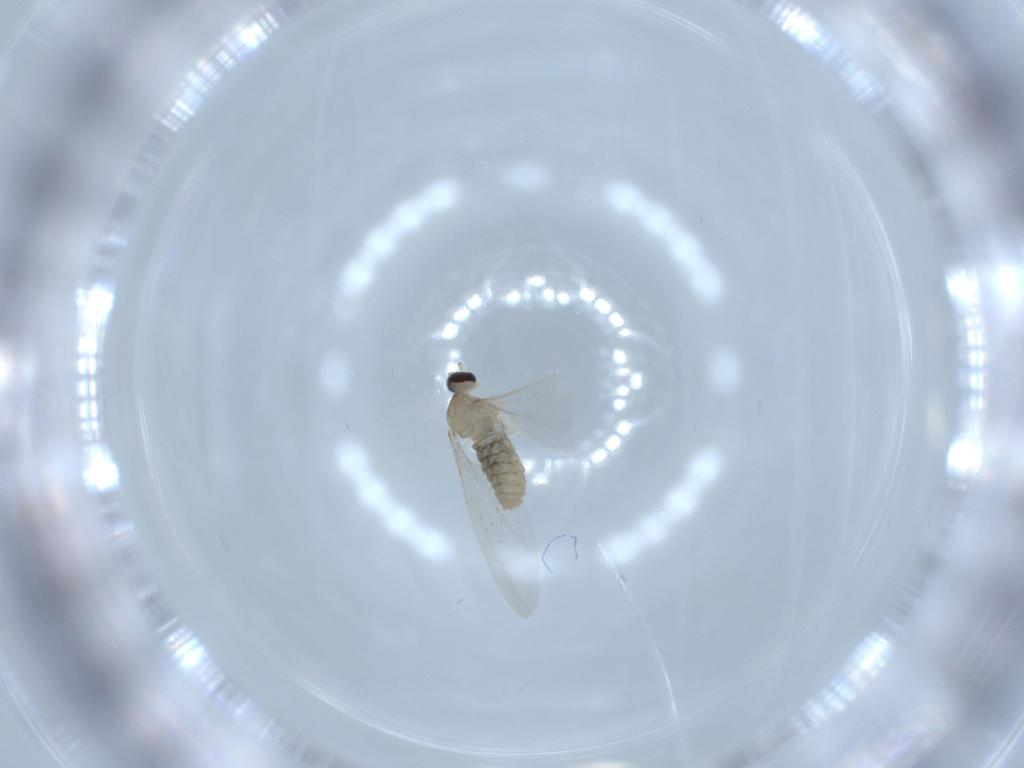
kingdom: Animalia
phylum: Arthropoda
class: Insecta
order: Diptera
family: Cecidomyiidae
